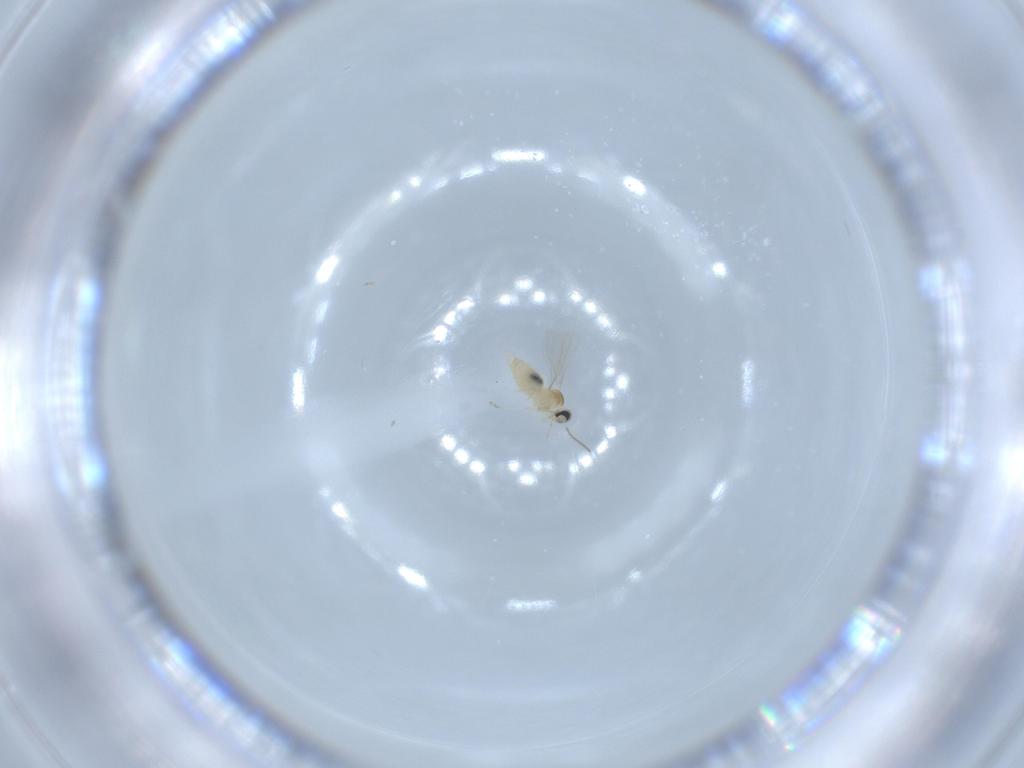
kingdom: Animalia
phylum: Arthropoda
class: Insecta
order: Diptera
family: Cecidomyiidae
